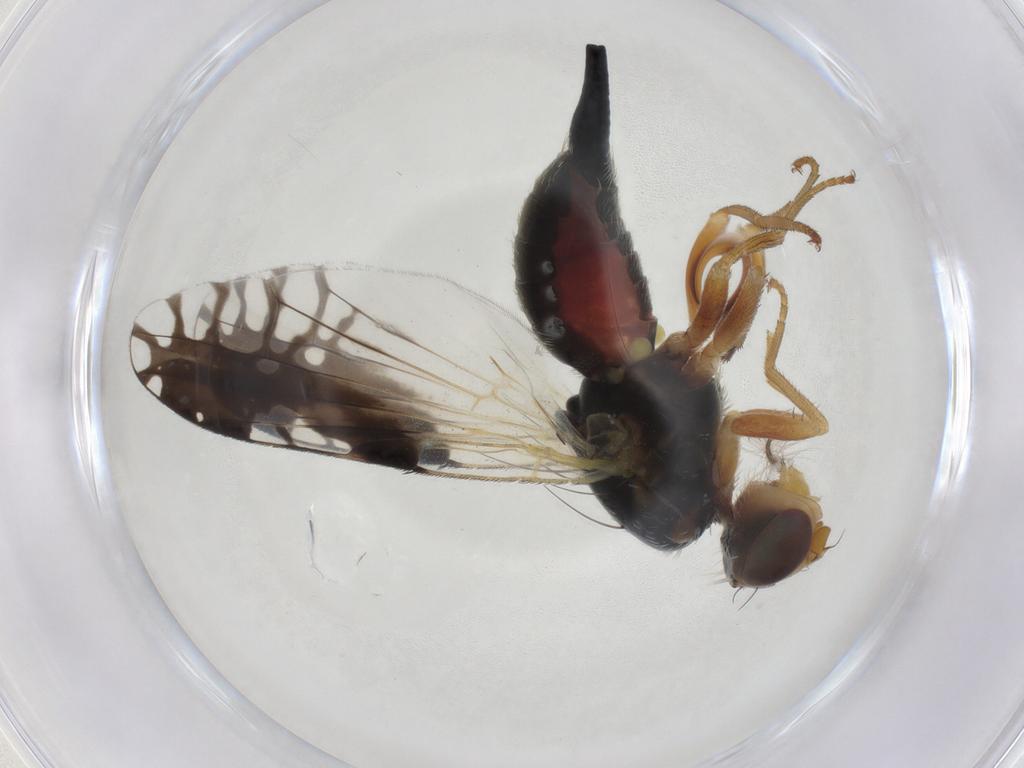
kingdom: Animalia
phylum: Arthropoda
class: Insecta
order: Diptera
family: Tephritidae
